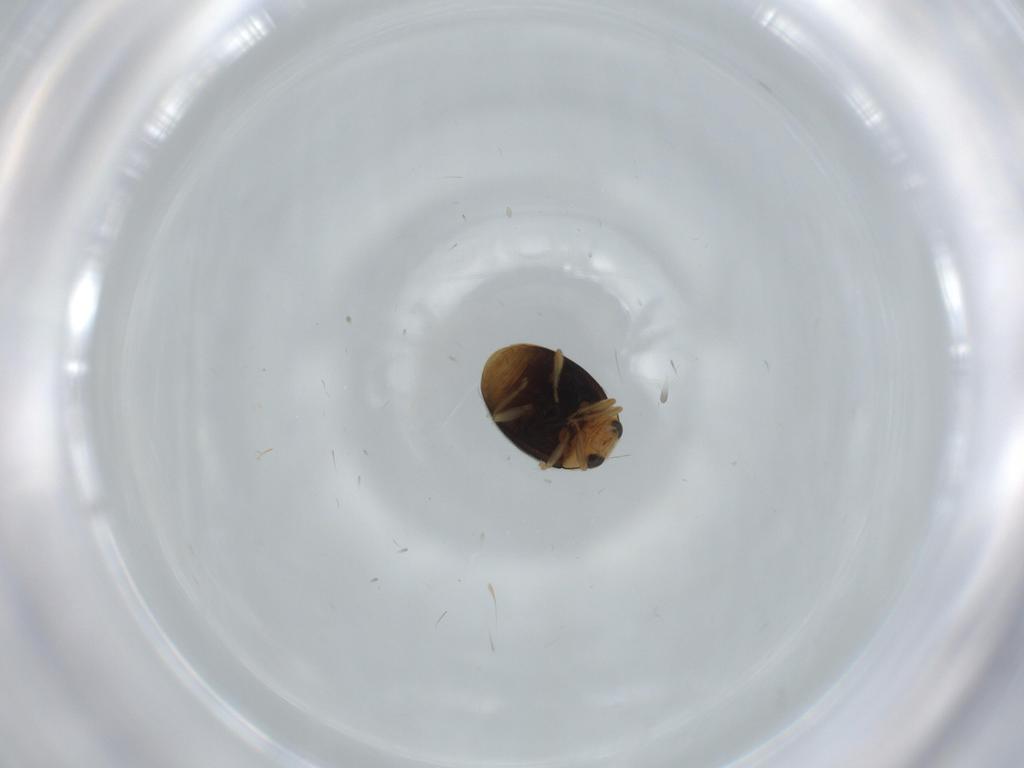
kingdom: Animalia
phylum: Arthropoda
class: Insecta
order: Coleoptera
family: Coccinellidae
